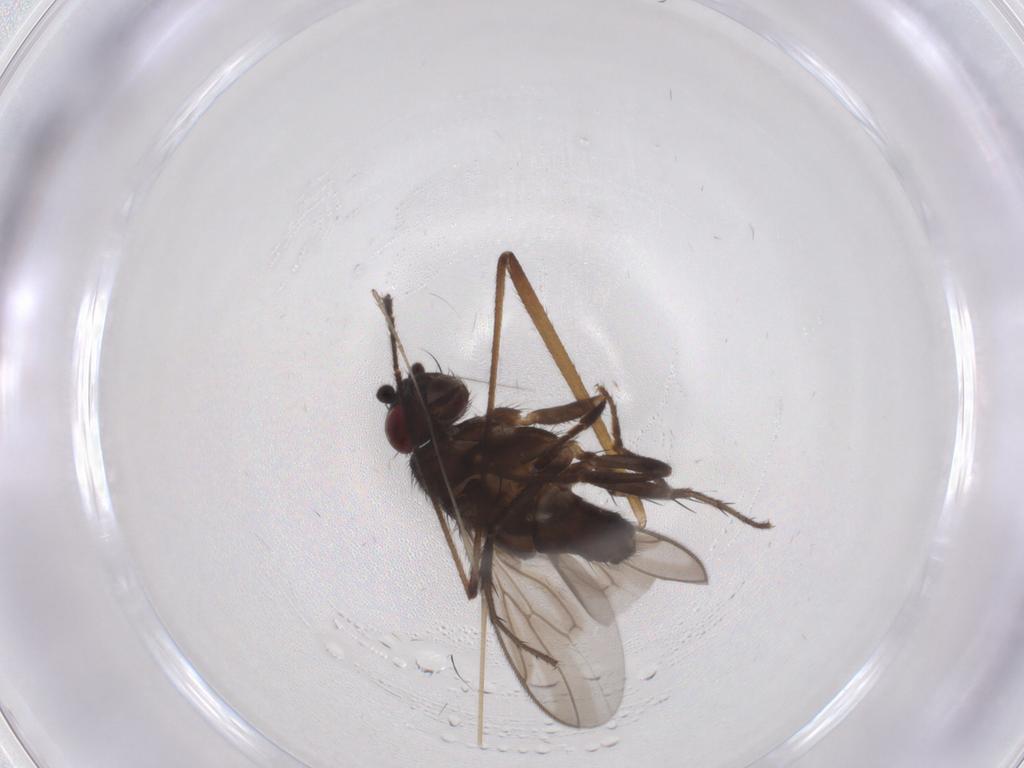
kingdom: Animalia
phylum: Arthropoda
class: Insecta
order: Diptera
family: Sphaeroceridae
